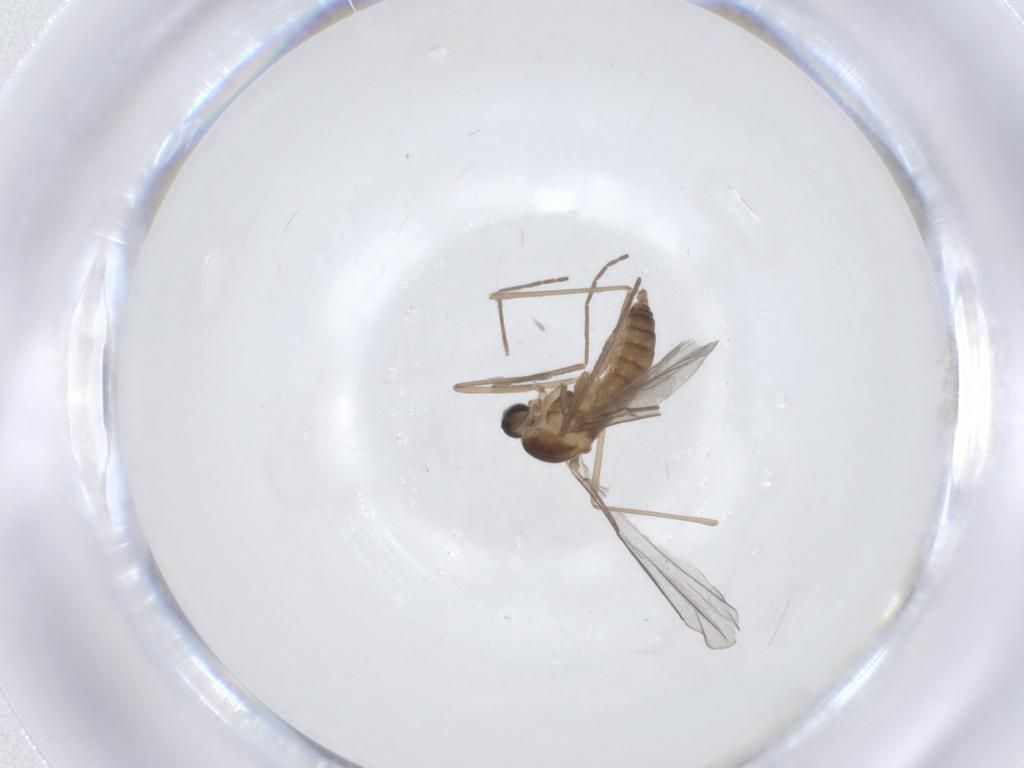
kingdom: Animalia
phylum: Arthropoda
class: Insecta
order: Diptera
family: Cecidomyiidae
